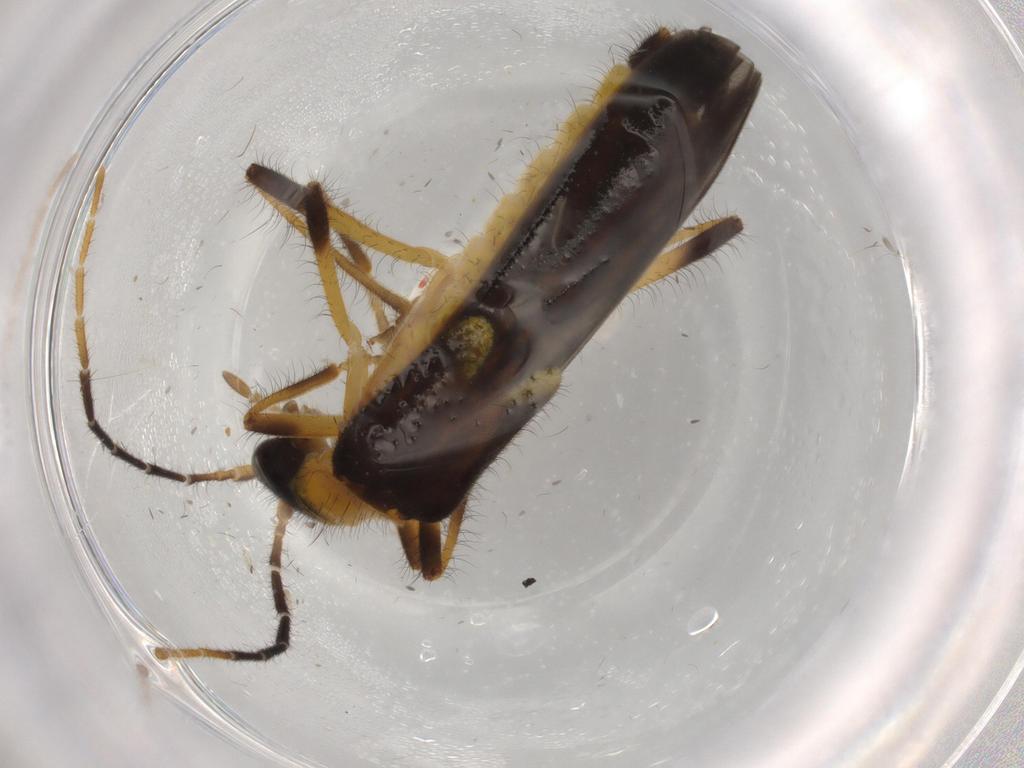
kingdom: Animalia
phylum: Arthropoda
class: Insecta
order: Coleoptera
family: Cantharidae
